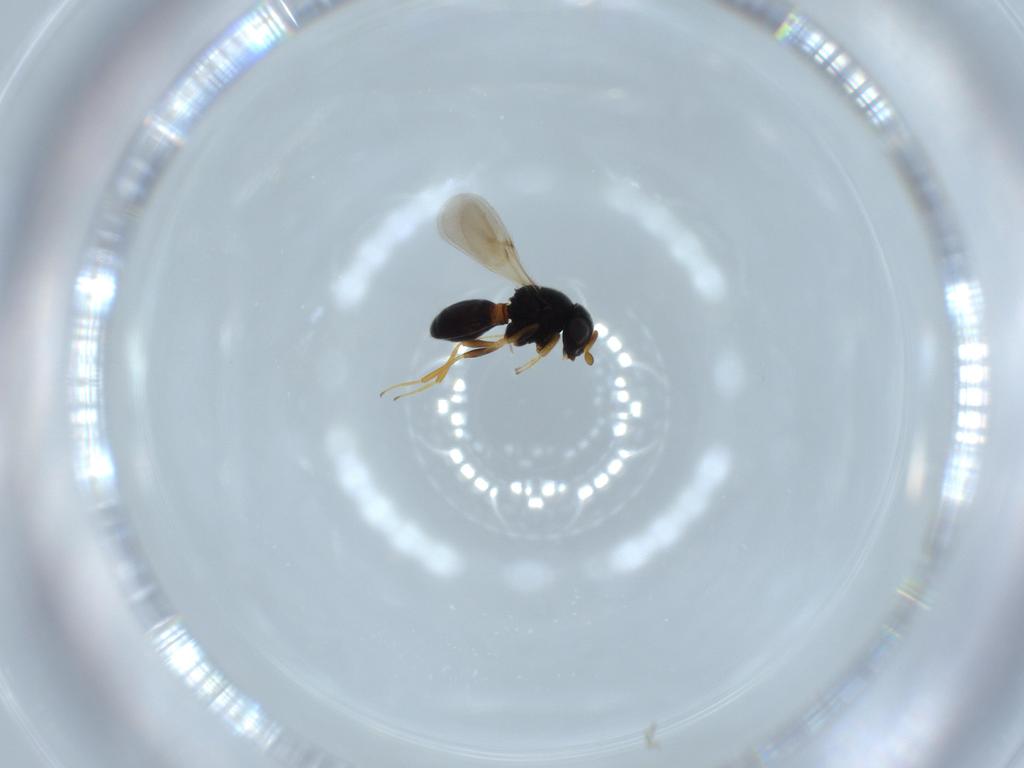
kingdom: Animalia
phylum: Arthropoda
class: Insecta
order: Hymenoptera
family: Scelionidae
